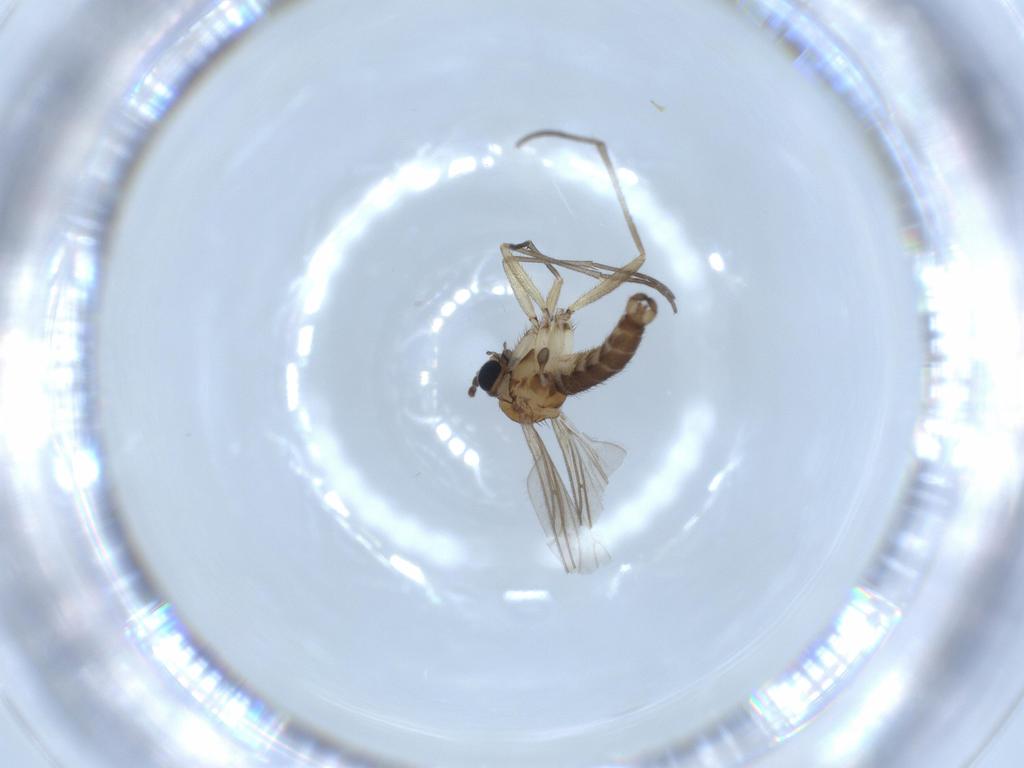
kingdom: Animalia
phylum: Arthropoda
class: Insecta
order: Diptera
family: Sciaridae
